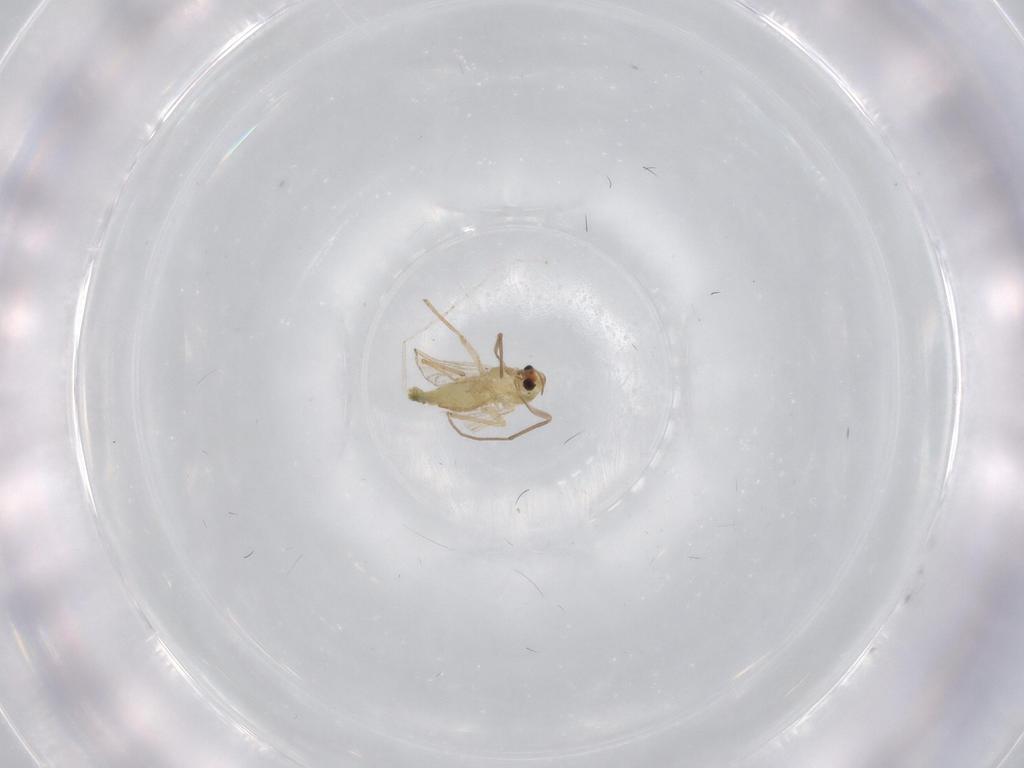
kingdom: Animalia
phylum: Arthropoda
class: Insecta
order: Diptera
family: Chironomidae
